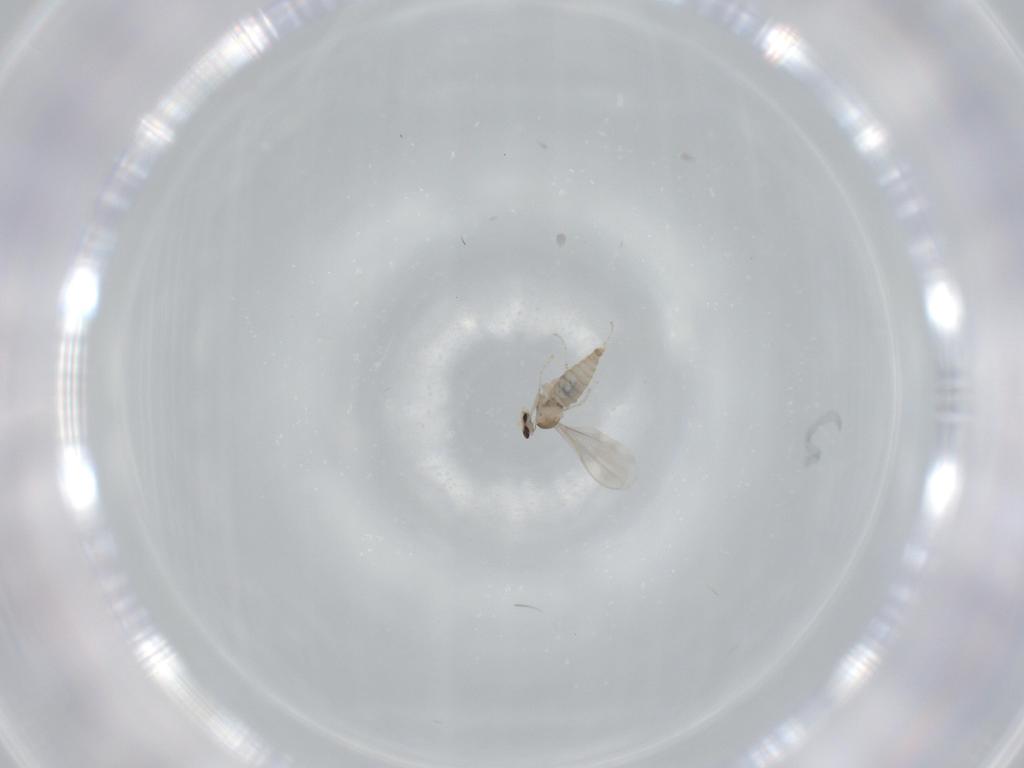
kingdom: Animalia
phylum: Arthropoda
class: Insecta
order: Diptera
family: Cecidomyiidae
